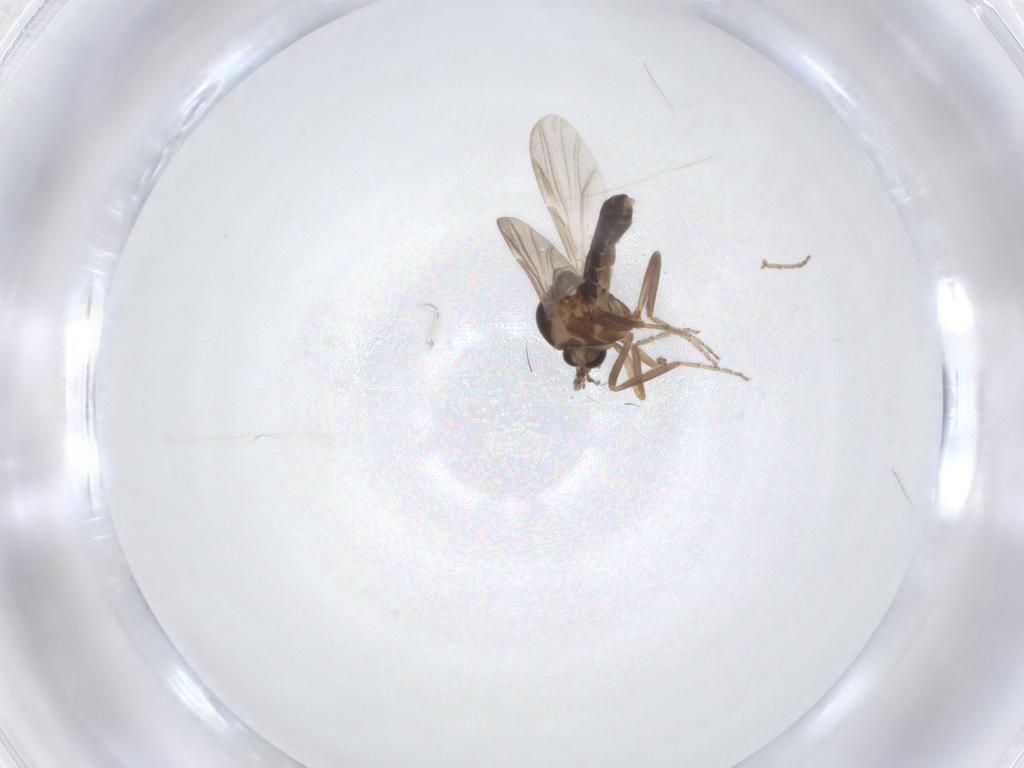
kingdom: Animalia
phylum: Arthropoda
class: Insecta
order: Diptera
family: Ceratopogonidae
